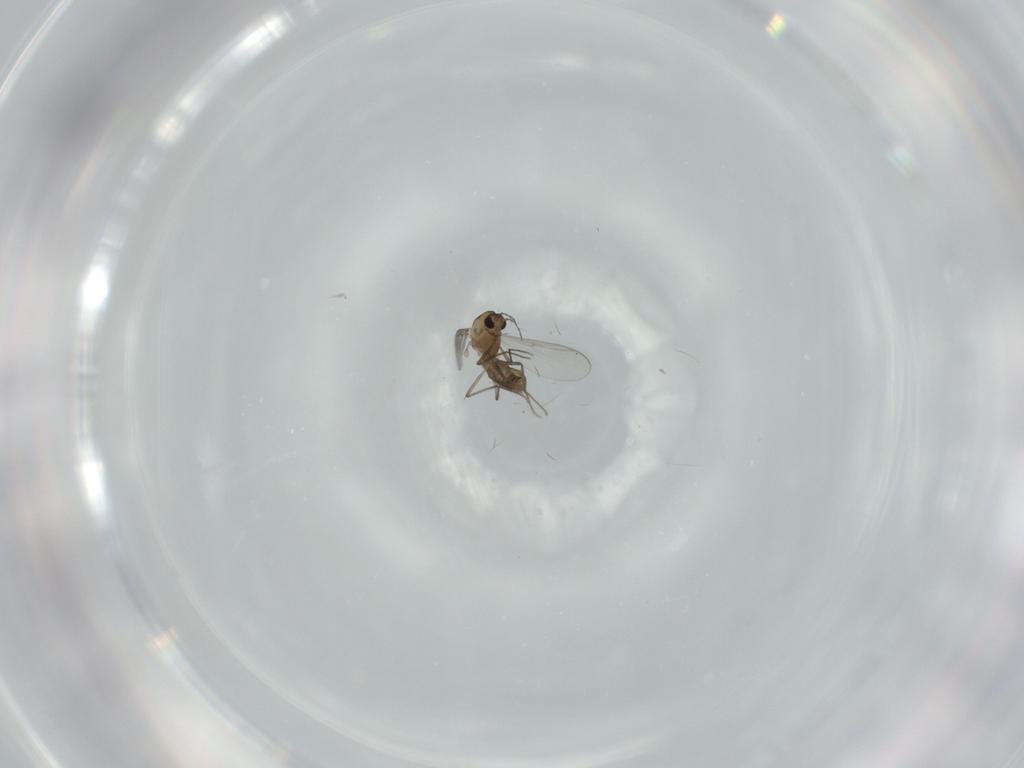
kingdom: Animalia
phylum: Arthropoda
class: Insecta
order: Diptera
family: Chironomidae
